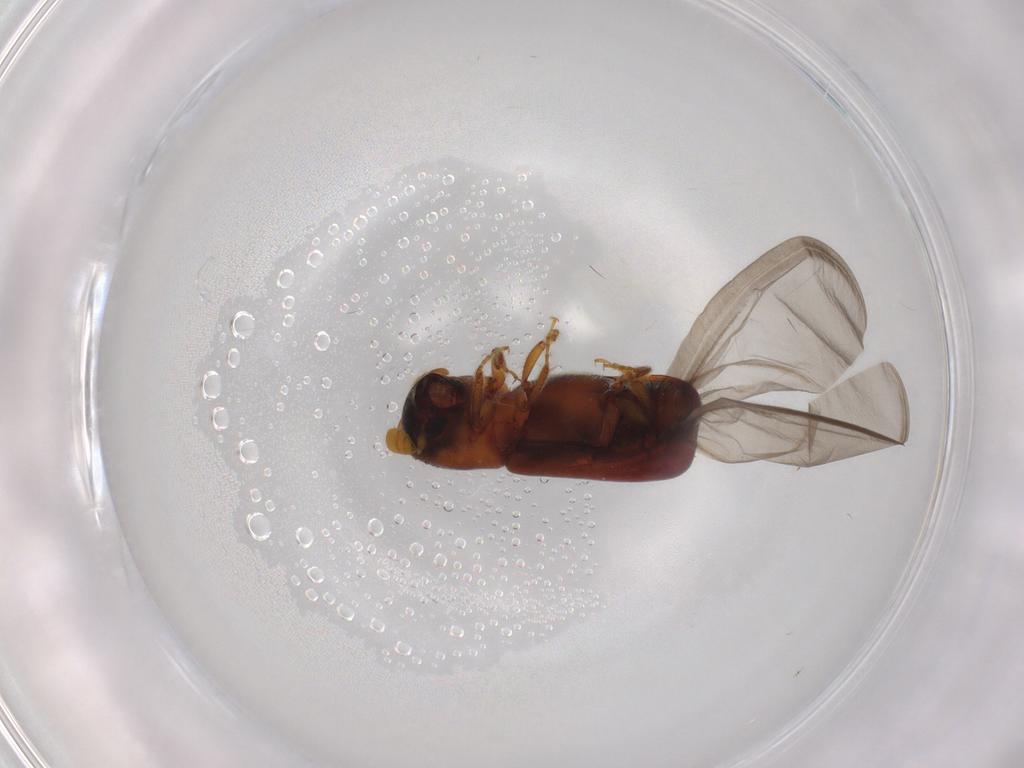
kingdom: Animalia
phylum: Arthropoda
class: Insecta
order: Coleoptera
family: Curculionidae
